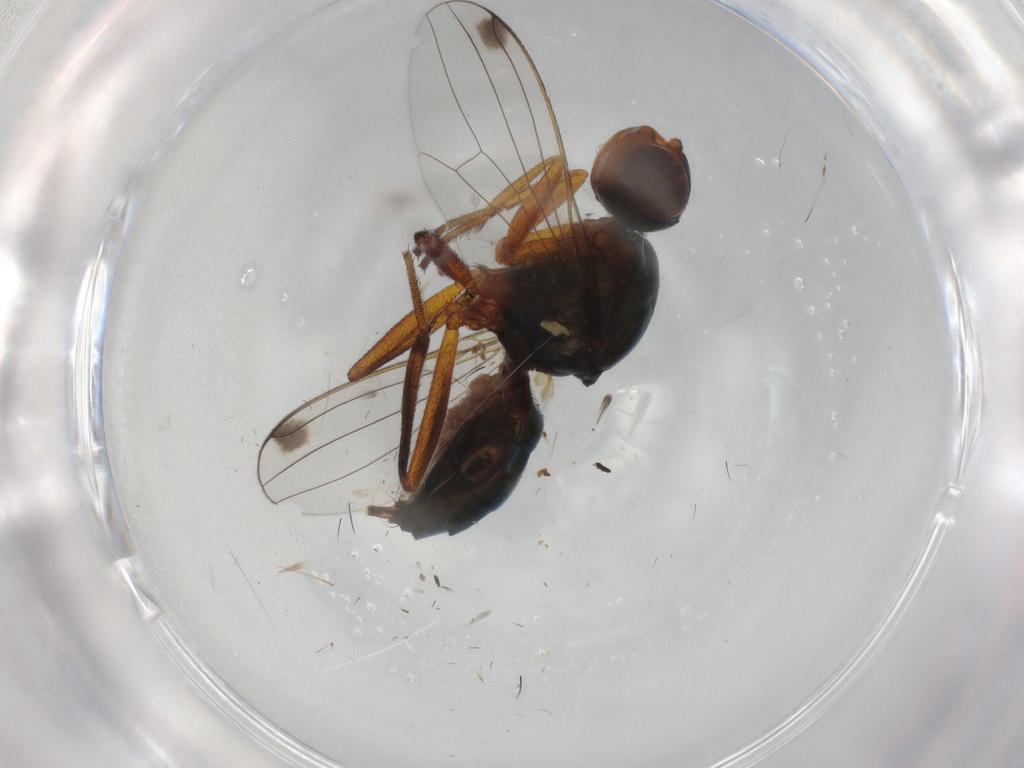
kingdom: Animalia
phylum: Arthropoda
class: Insecta
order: Diptera
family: Sepsidae
